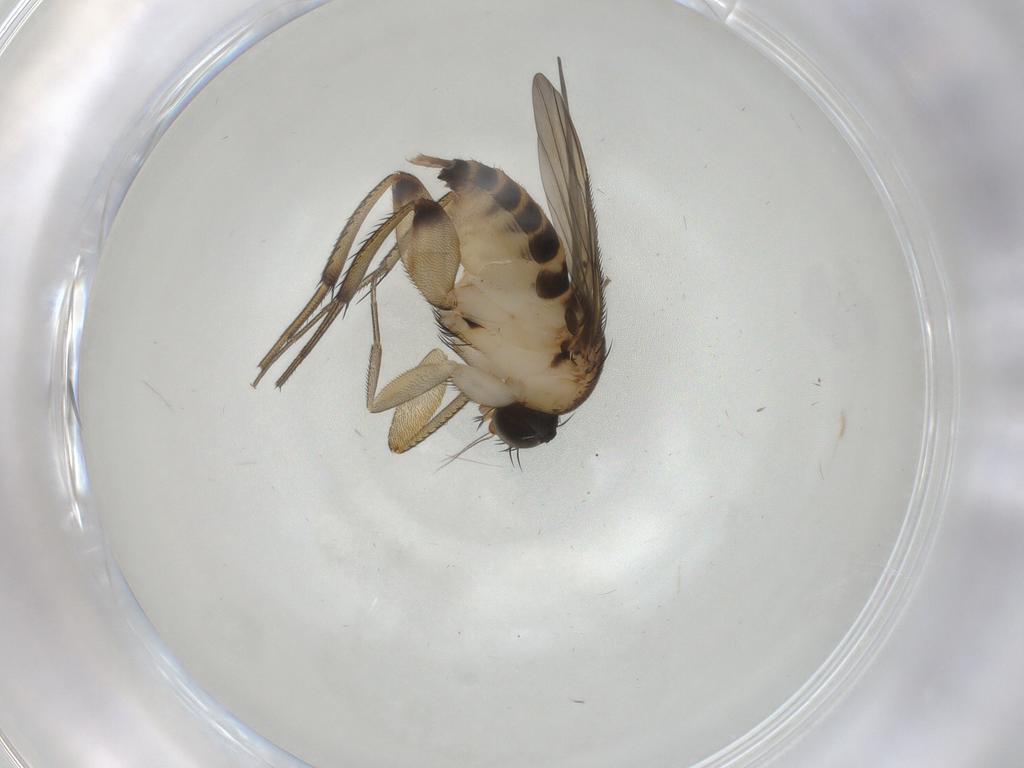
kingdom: Animalia
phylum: Arthropoda
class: Insecta
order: Diptera
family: Phoridae
